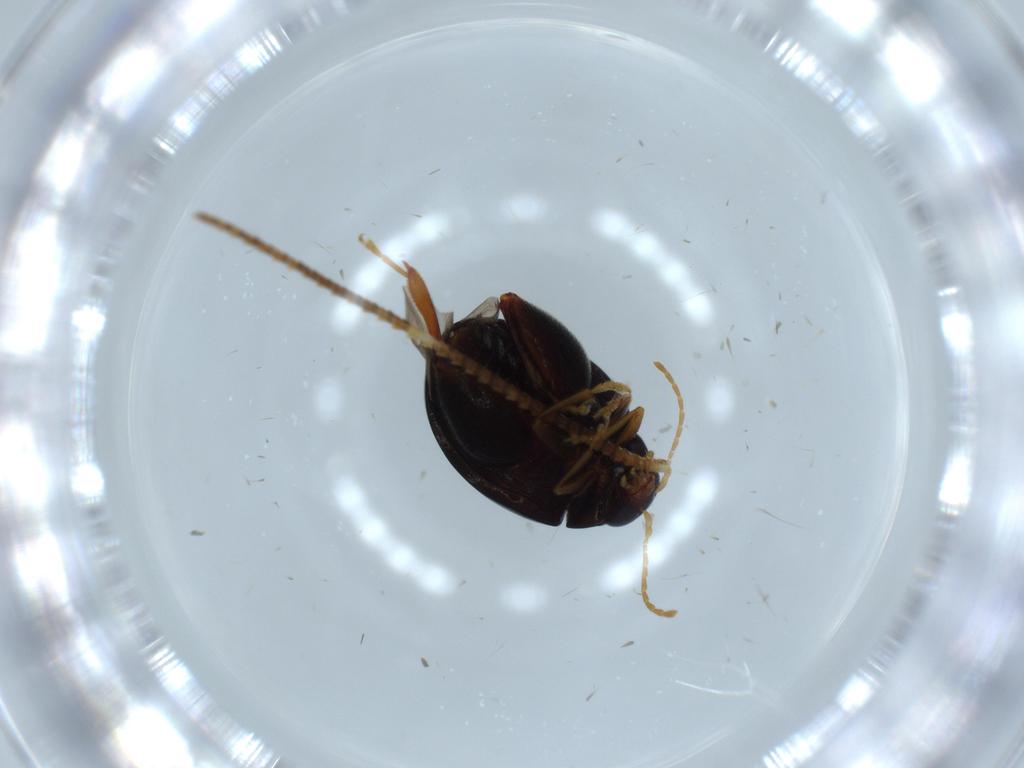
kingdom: Animalia
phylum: Arthropoda
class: Insecta
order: Coleoptera
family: Chrysomelidae
